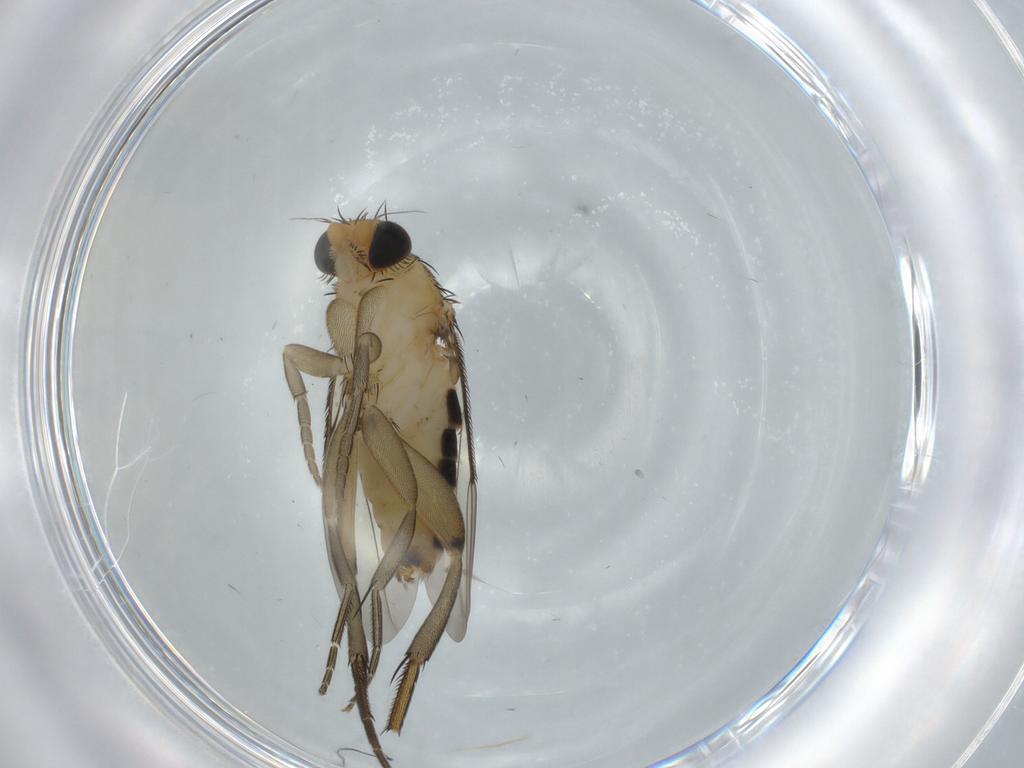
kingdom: Animalia
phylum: Arthropoda
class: Insecta
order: Diptera
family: Phoridae
